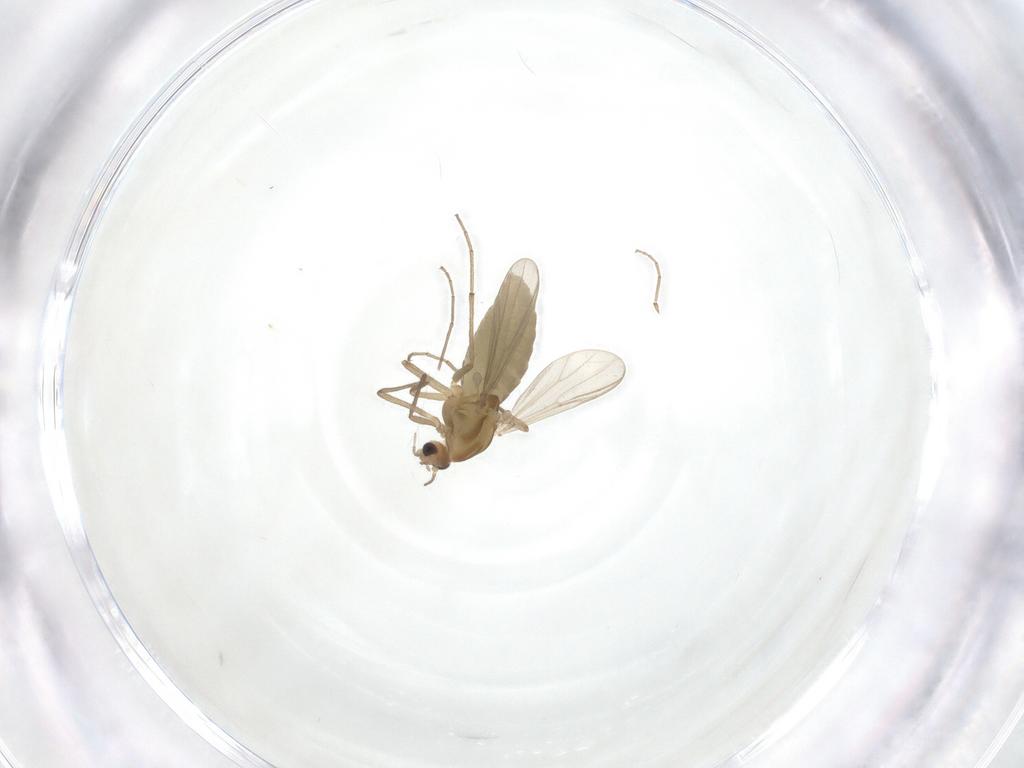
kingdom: Animalia
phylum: Arthropoda
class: Insecta
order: Diptera
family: Chironomidae
